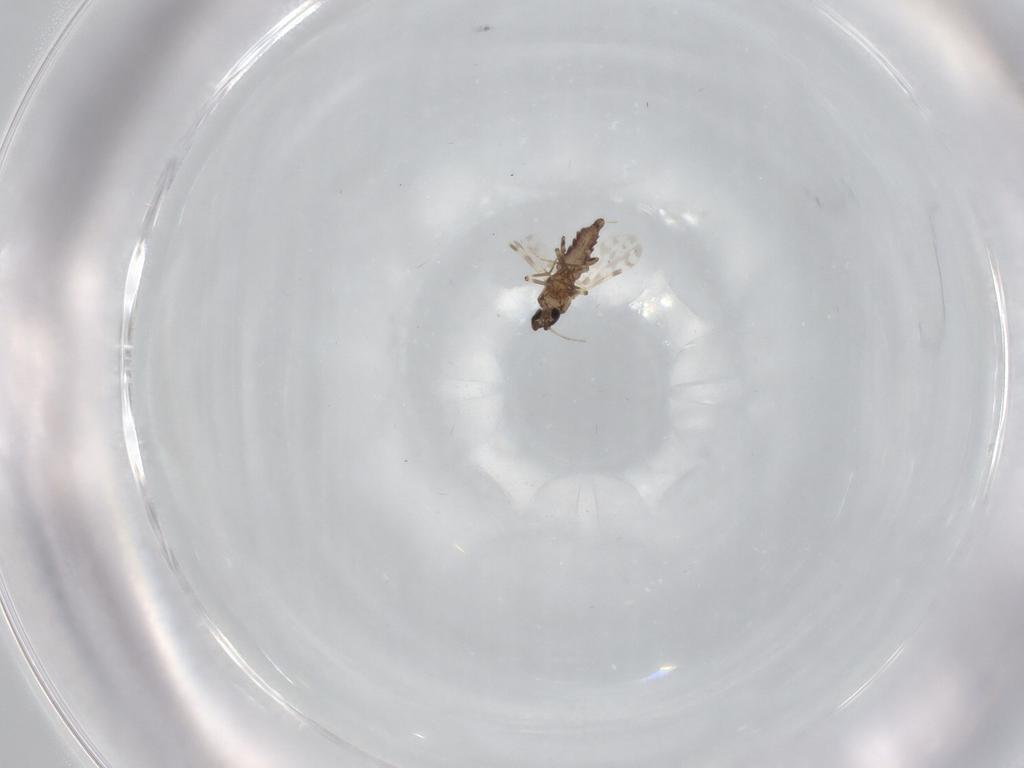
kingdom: Animalia
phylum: Arthropoda
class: Insecta
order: Diptera
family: Ceratopogonidae
